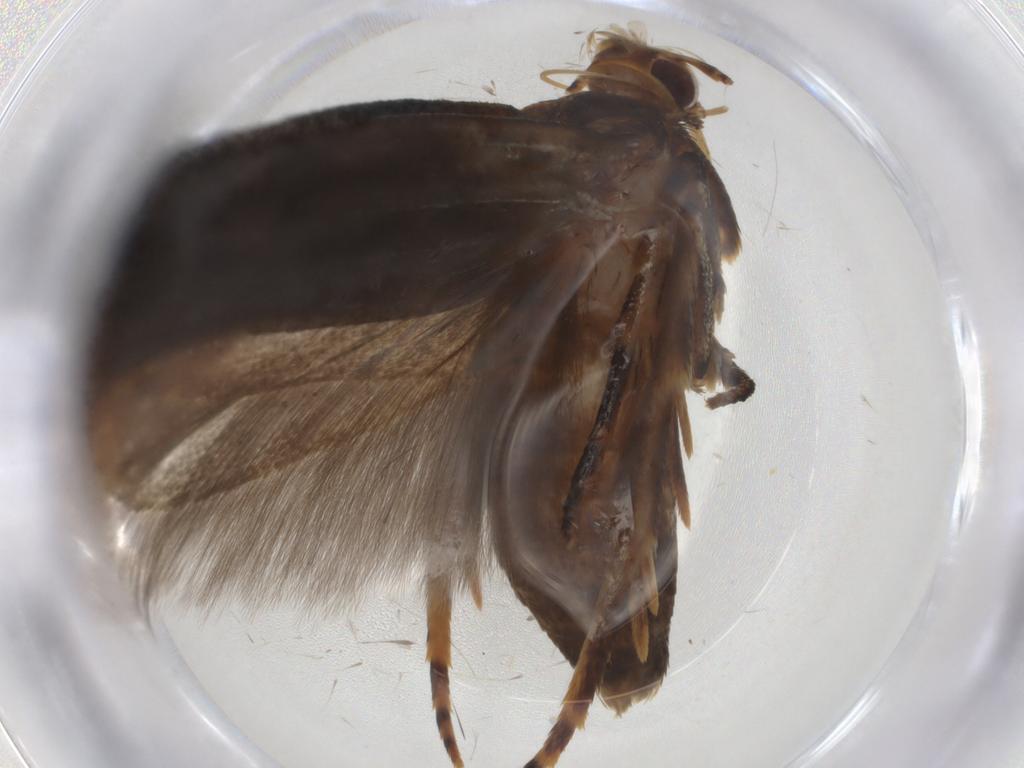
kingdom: Animalia
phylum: Arthropoda
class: Insecta
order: Lepidoptera
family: Gelechiidae
